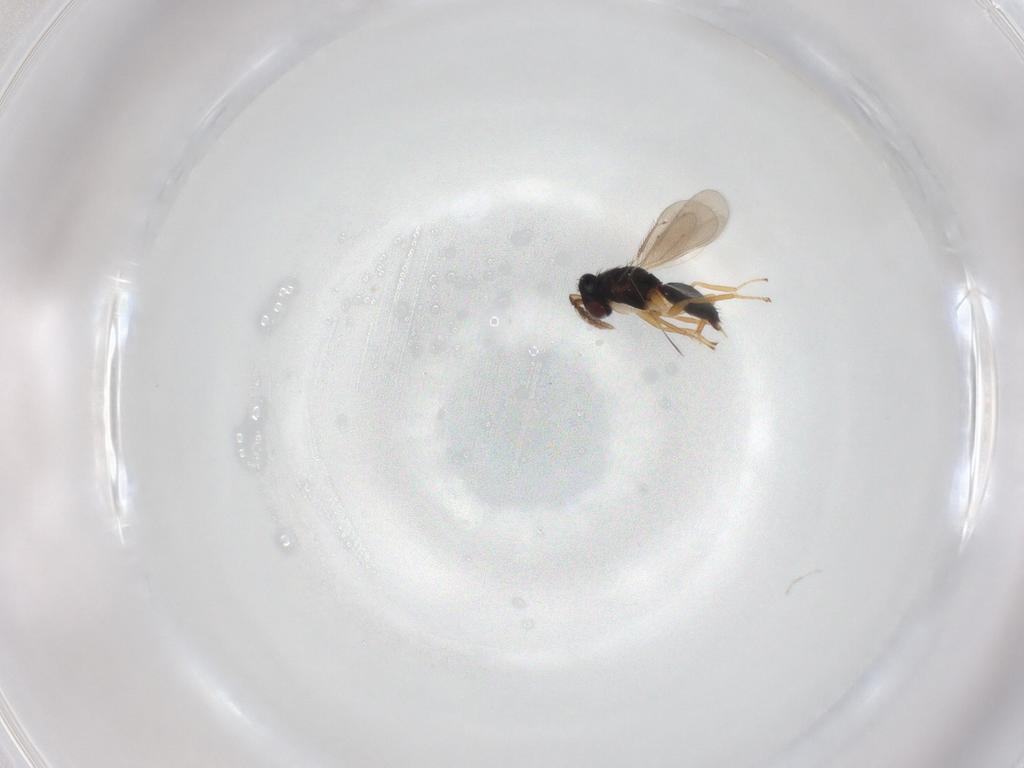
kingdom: Animalia
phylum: Arthropoda
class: Insecta
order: Hymenoptera
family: Eulophidae
